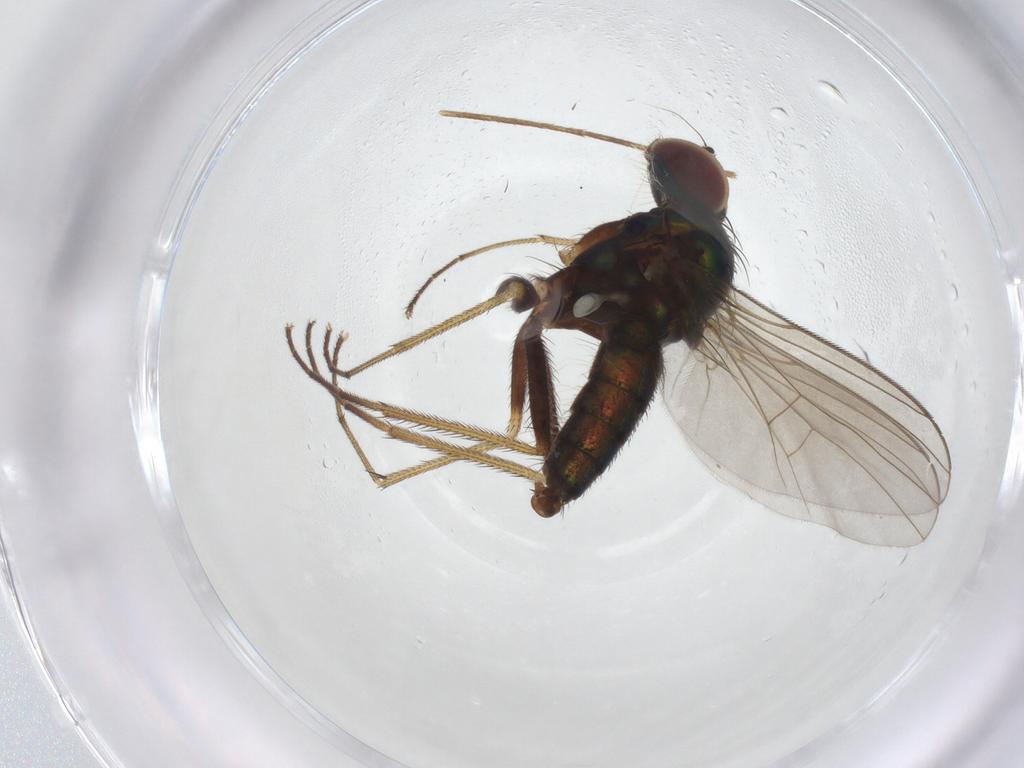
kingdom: Animalia
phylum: Arthropoda
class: Insecta
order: Diptera
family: Dolichopodidae
